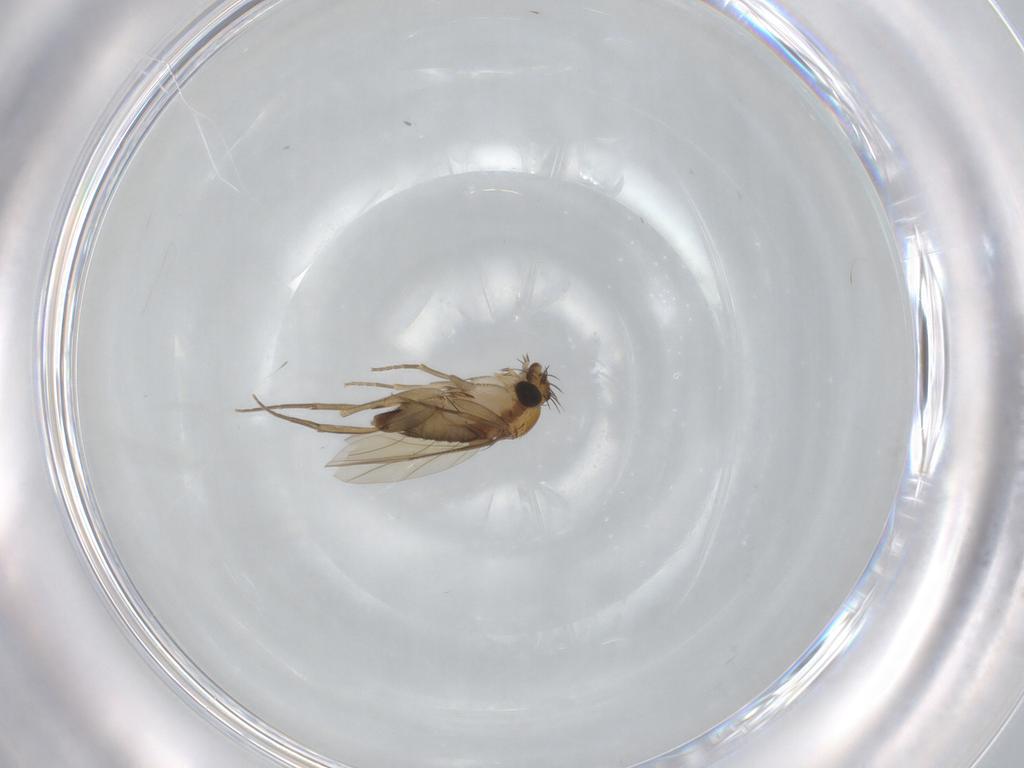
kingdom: Animalia
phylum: Arthropoda
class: Insecta
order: Diptera
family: Phoridae
